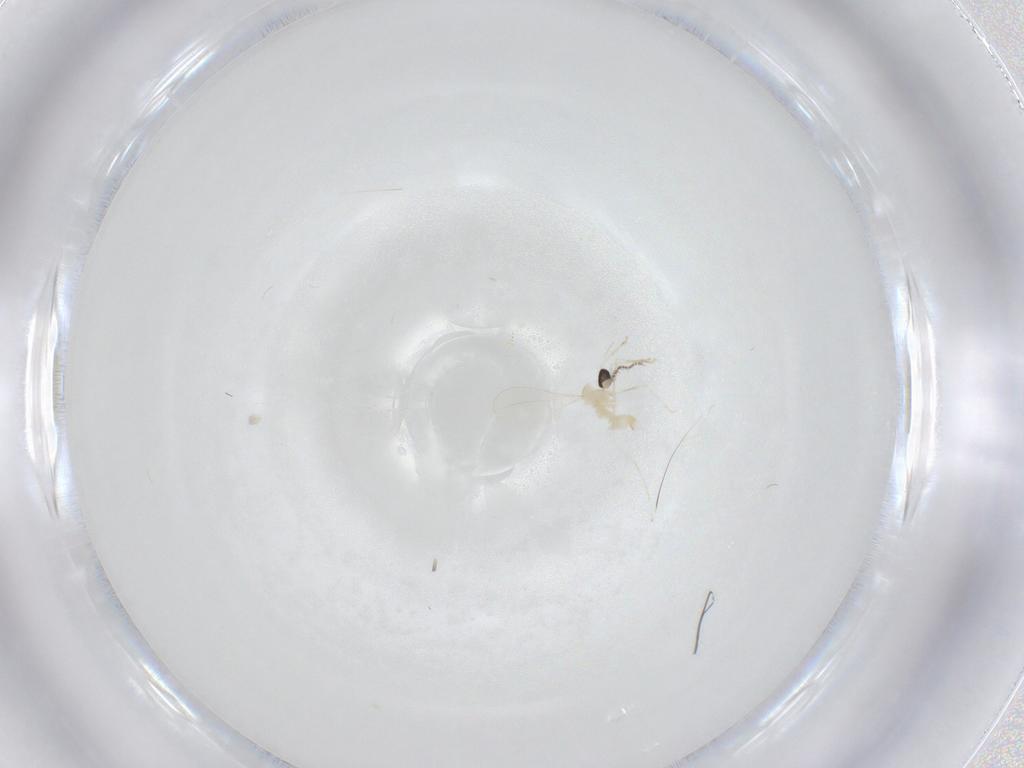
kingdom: Animalia
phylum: Arthropoda
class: Insecta
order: Diptera
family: Cecidomyiidae
